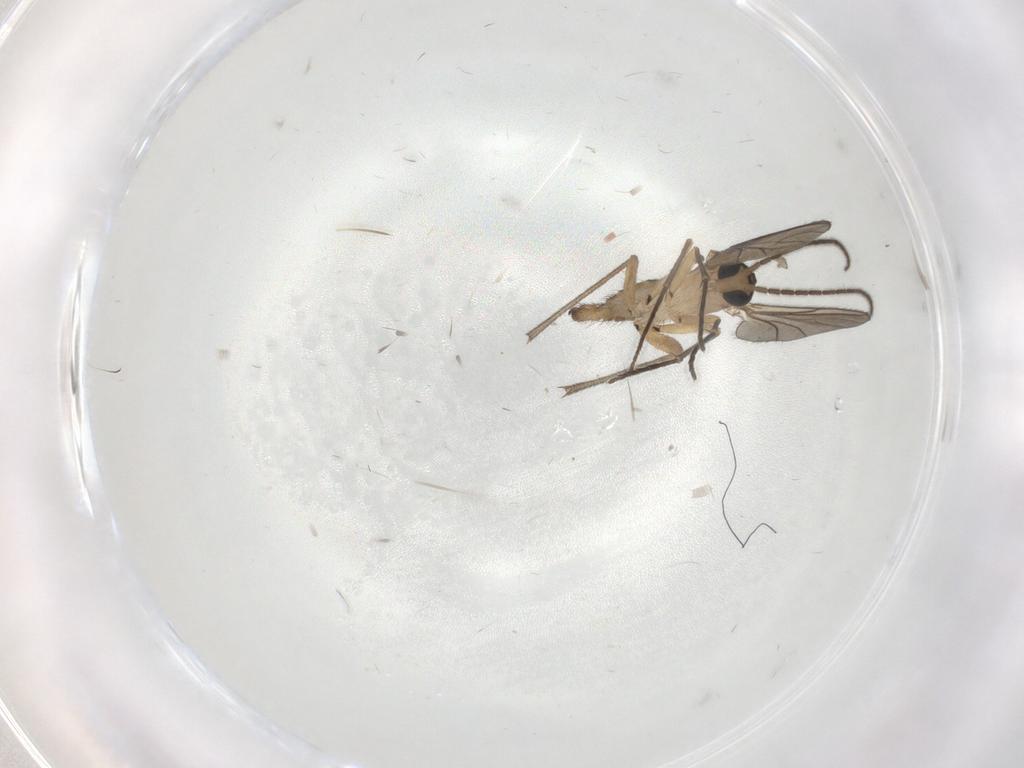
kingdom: Animalia
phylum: Arthropoda
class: Insecta
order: Diptera
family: Sciaridae
